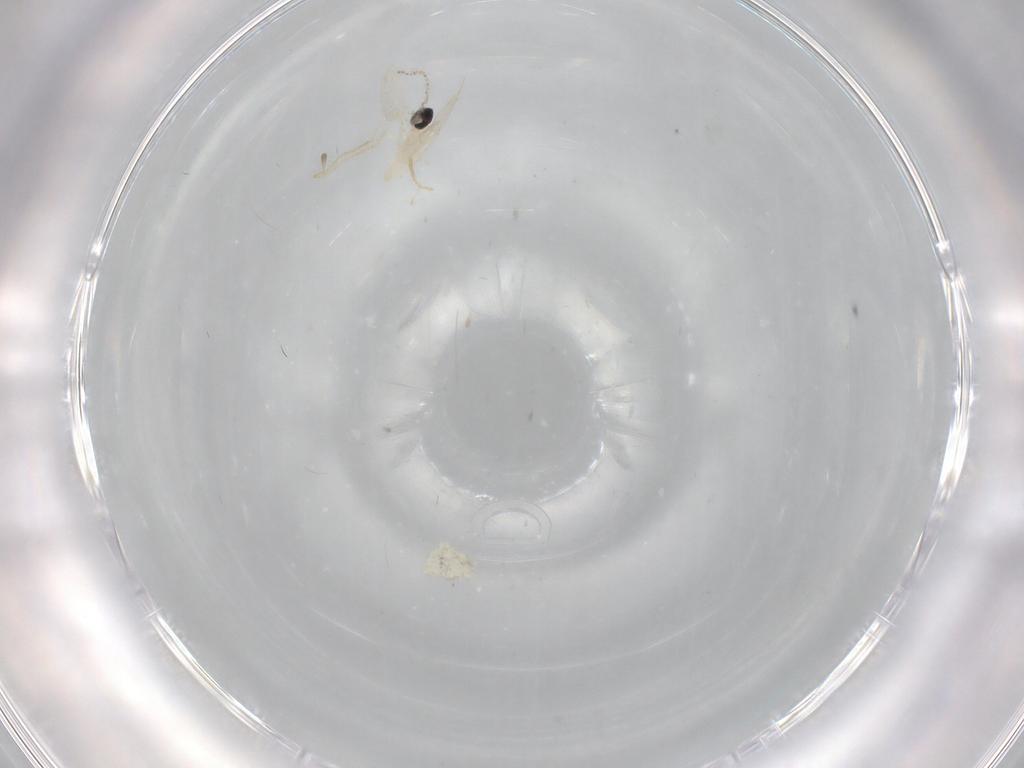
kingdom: Animalia
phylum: Arthropoda
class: Insecta
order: Diptera
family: Cecidomyiidae
